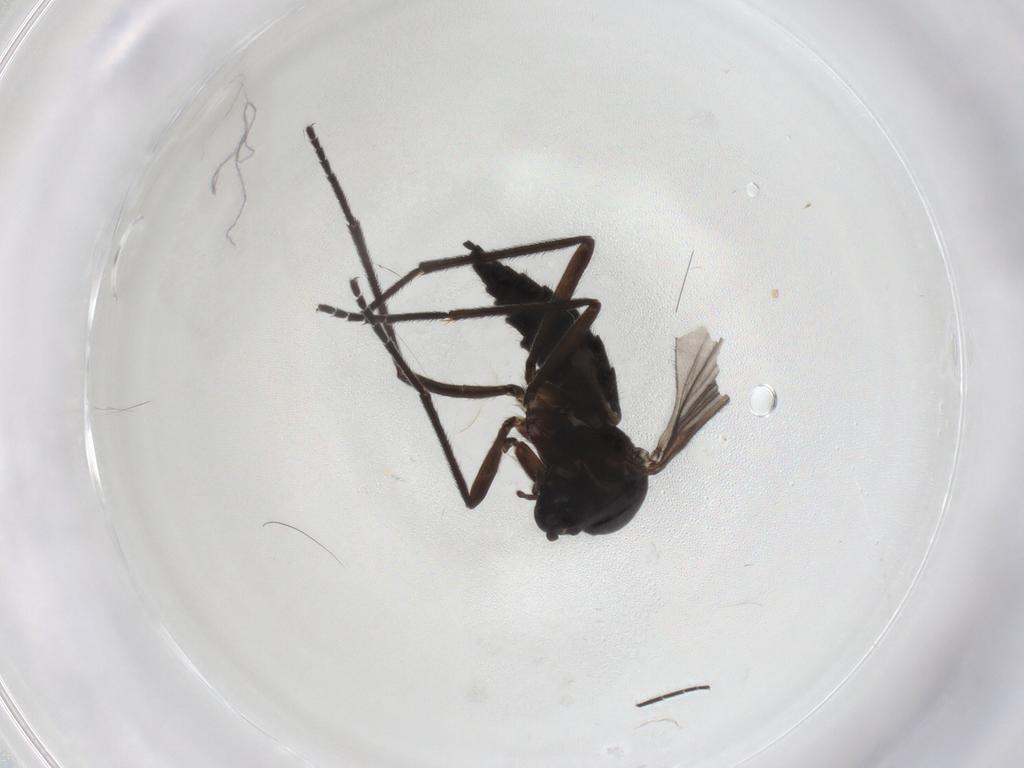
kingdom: Animalia
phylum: Arthropoda
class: Insecta
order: Diptera
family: Sciaridae
